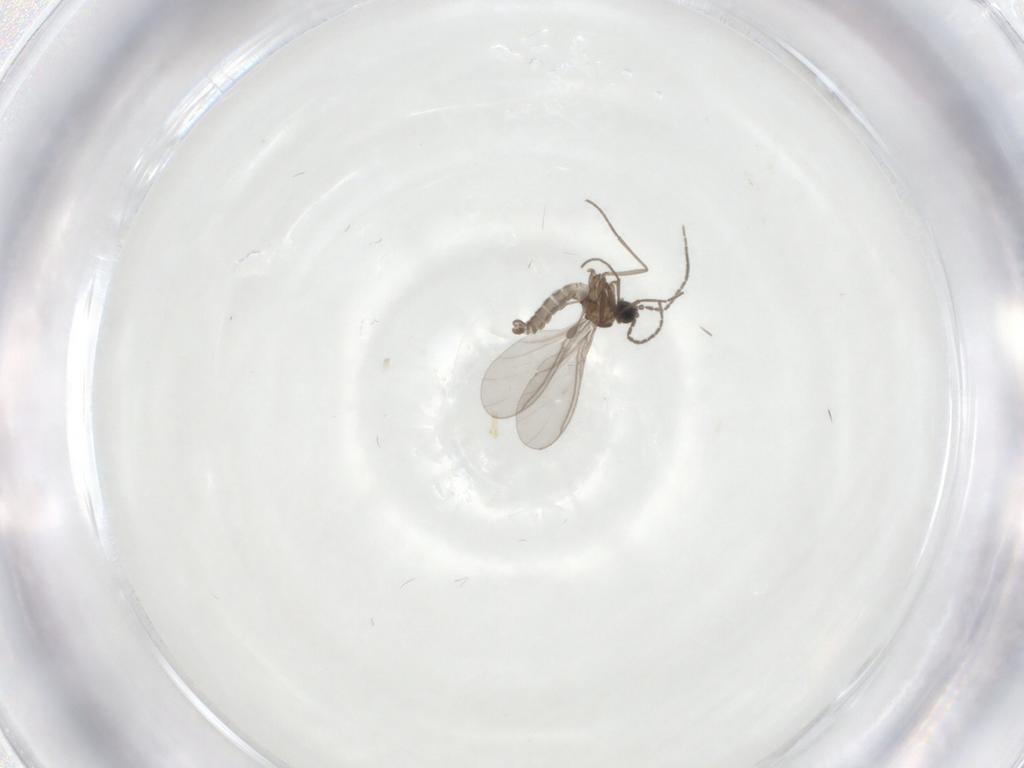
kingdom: Animalia
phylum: Arthropoda
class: Insecta
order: Diptera
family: Sciaridae
